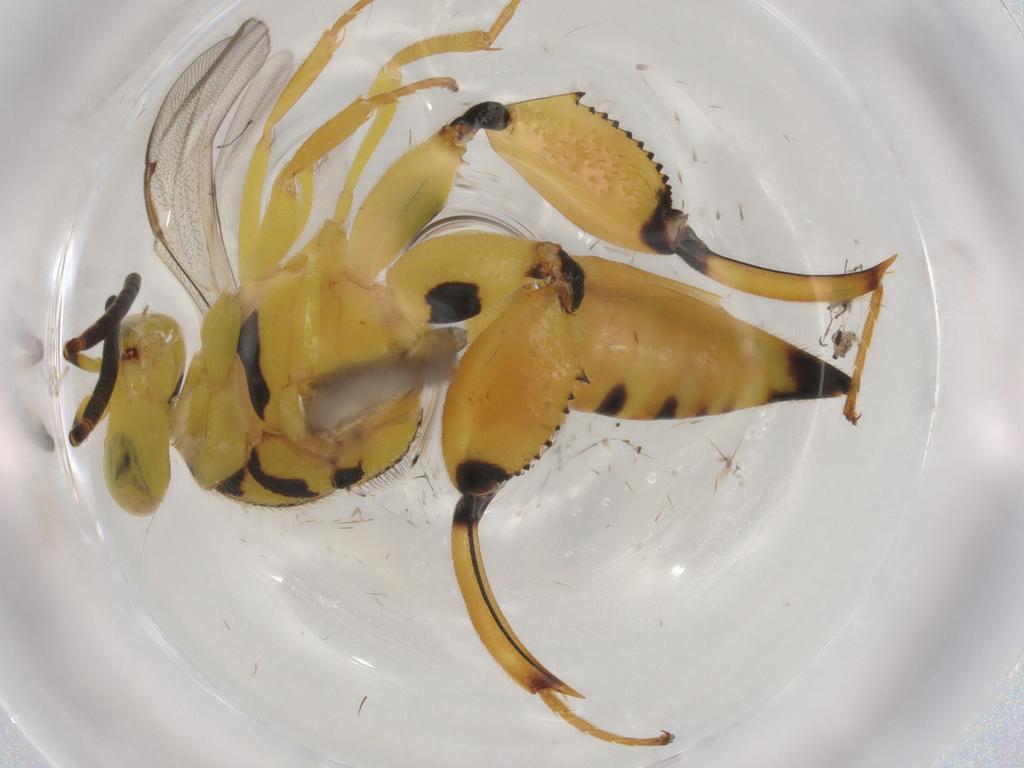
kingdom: Animalia
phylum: Arthropoda
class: Insecta
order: Hymenoptera
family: Formicidae
